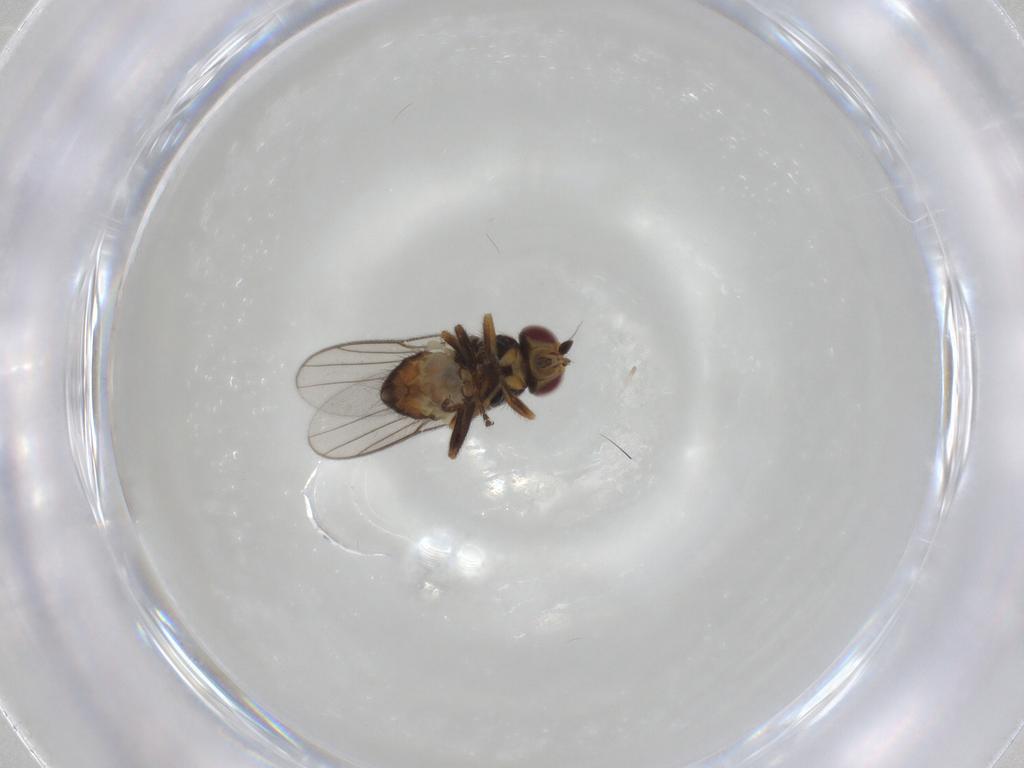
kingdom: Animalia
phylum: Arthropoda
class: Insecta
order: Diptera
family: Chloropidae
